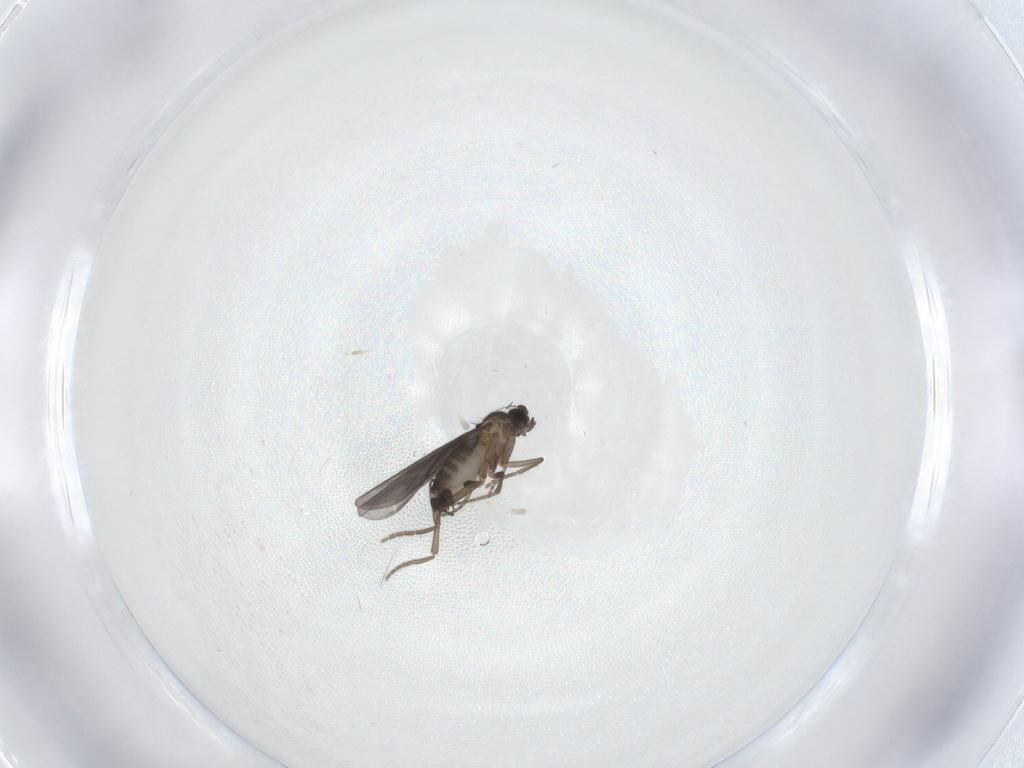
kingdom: Animalia
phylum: Arthropoda
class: Insecta
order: Diptera
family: Phoridae
